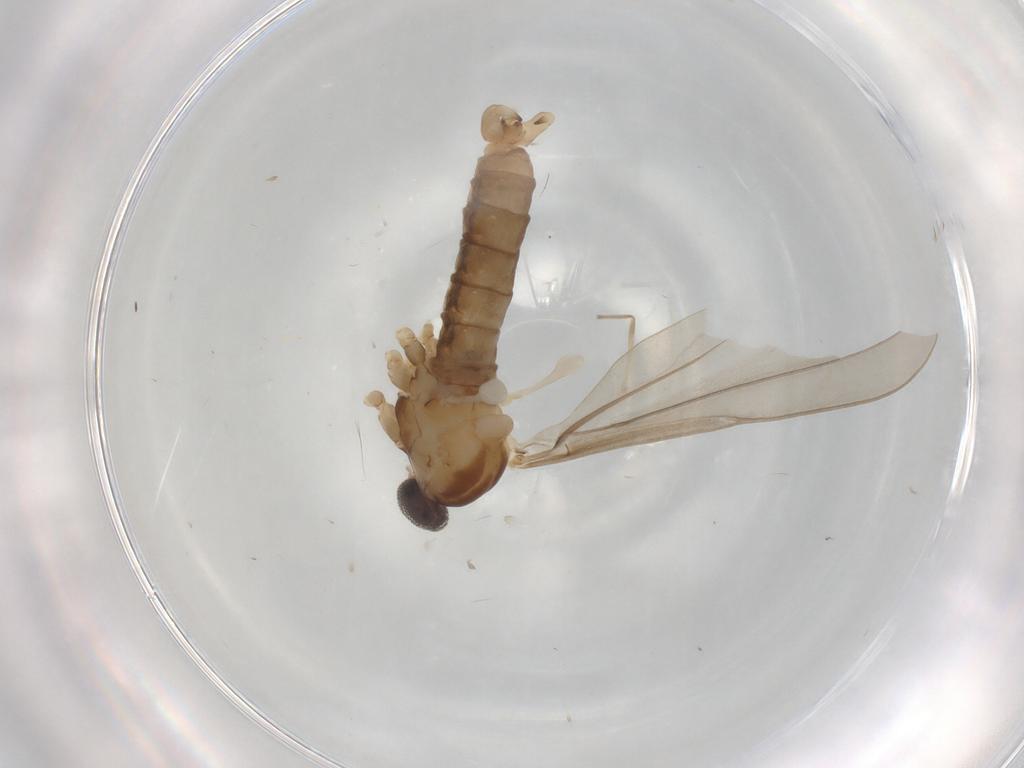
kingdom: Animalia
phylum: Arthropoda
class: Insecta
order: Diptera
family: Cecidomyiidae
